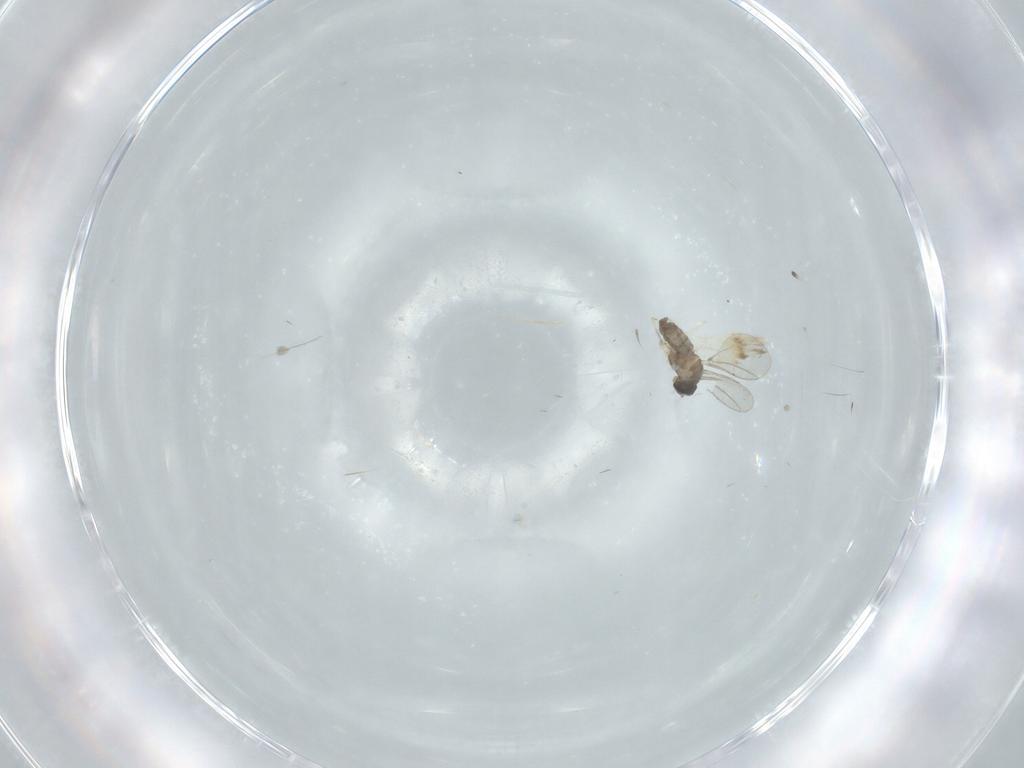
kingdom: Animalia
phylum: Arthropoda
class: Insecta
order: Diptera
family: Cecidomyiidae
